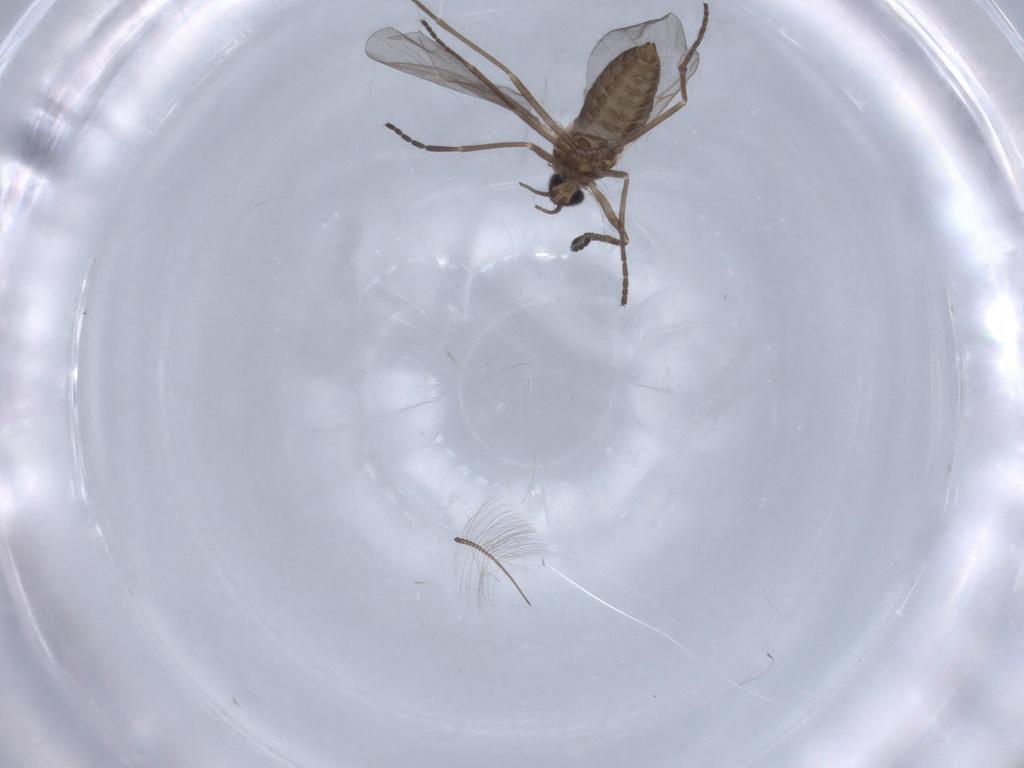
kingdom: Animalia
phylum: Arthropoda
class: Insecta
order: Diptera
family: Cecidomyiidae
